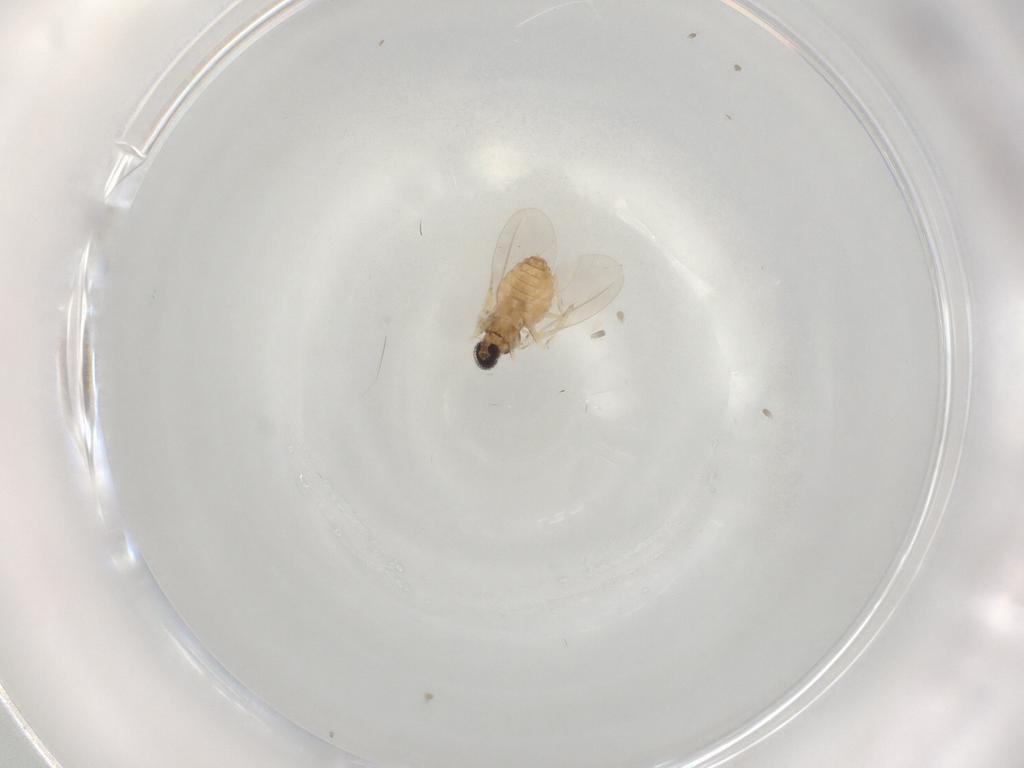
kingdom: Animalia
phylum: Arthropoda
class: Insecta
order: Diptera
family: Cecidomyiidae
